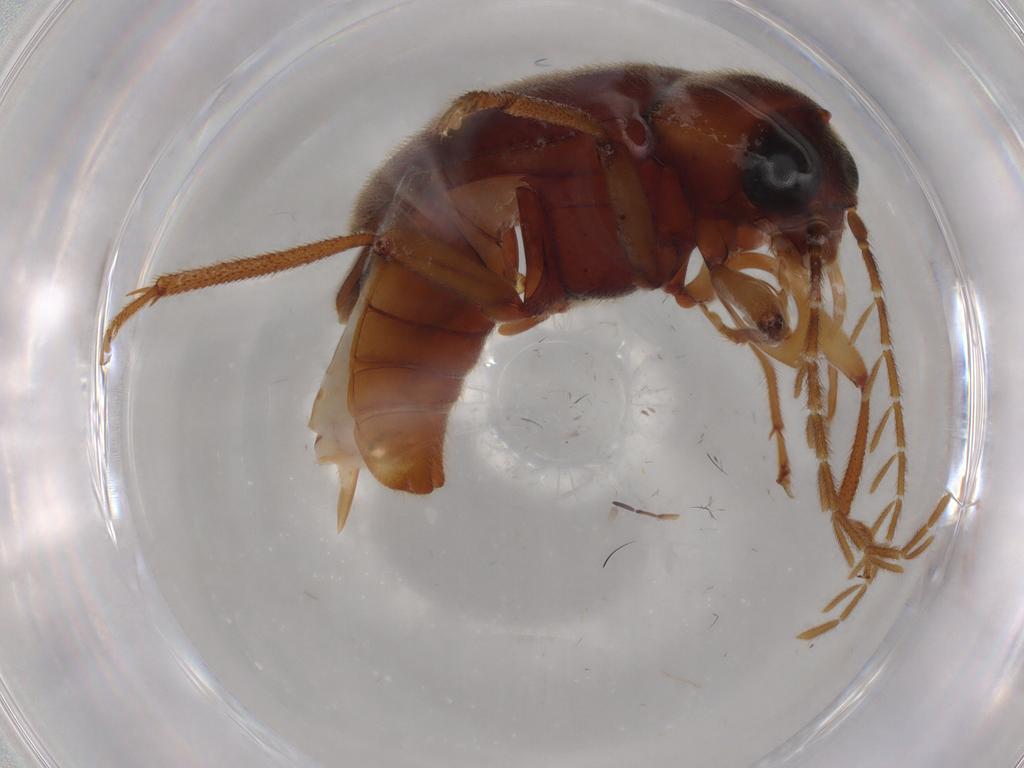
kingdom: Animalia
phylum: Arthropoda
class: Insecta
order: Coleoptera
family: Ptilodactylidae
